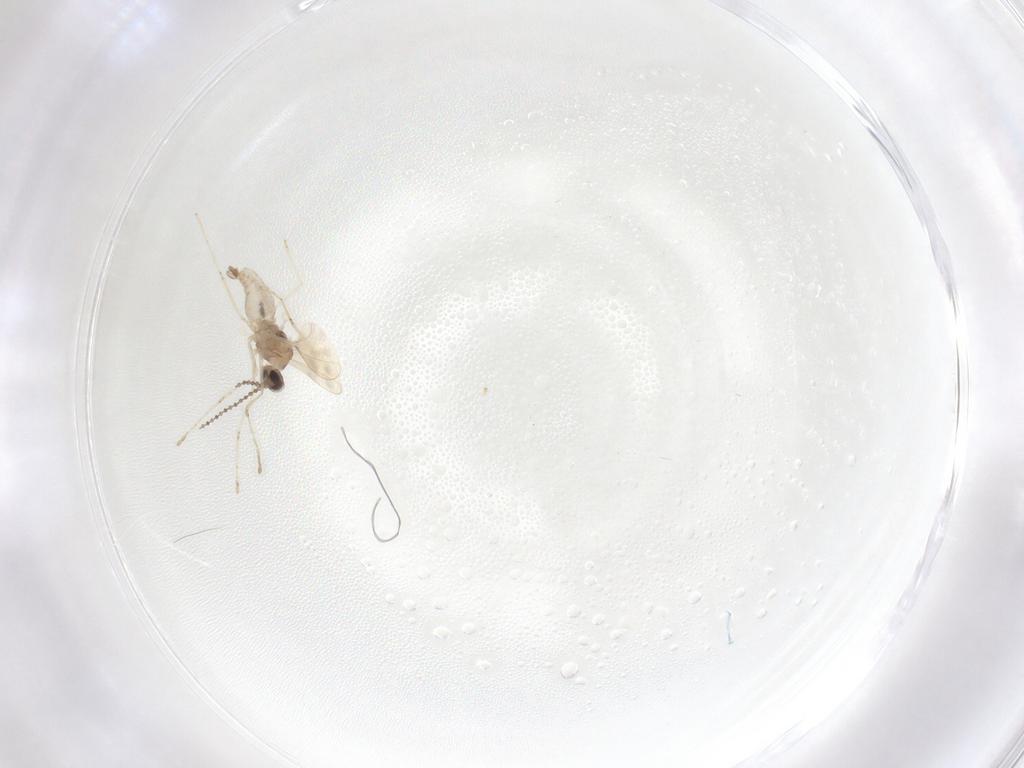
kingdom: Animalia
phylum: Arthropoda
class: Insecta
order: Diptera
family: Cecidomyiidae
